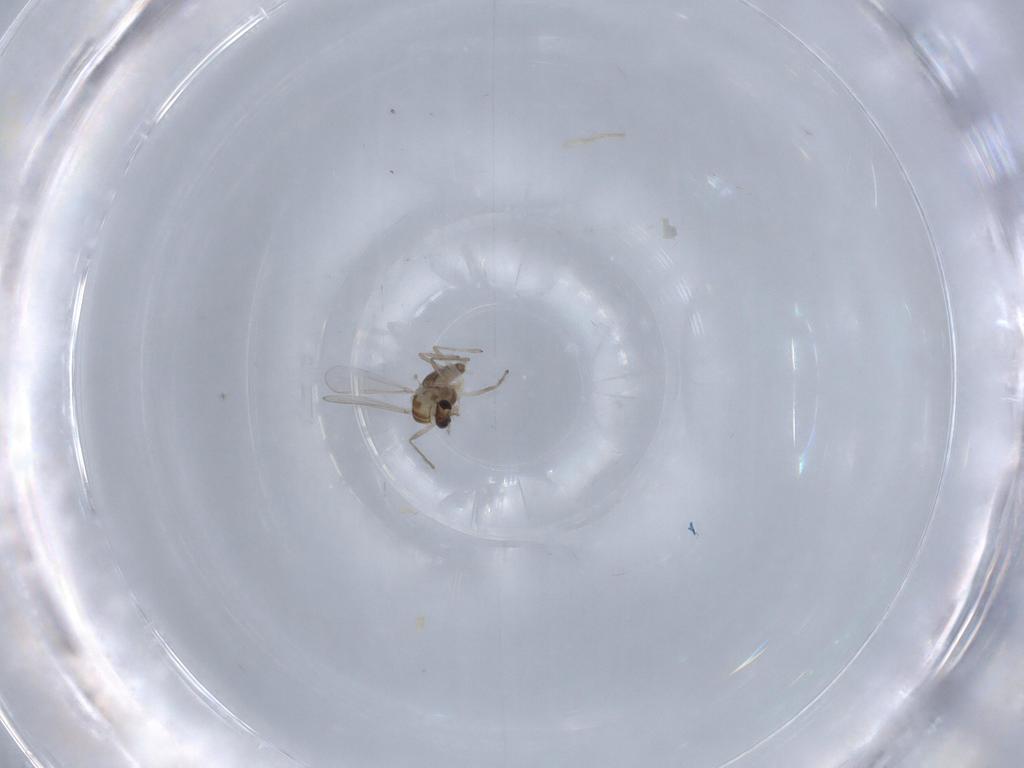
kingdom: Animalia
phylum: Arthropoda
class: Insecta
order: Diptera
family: Chironomidae
